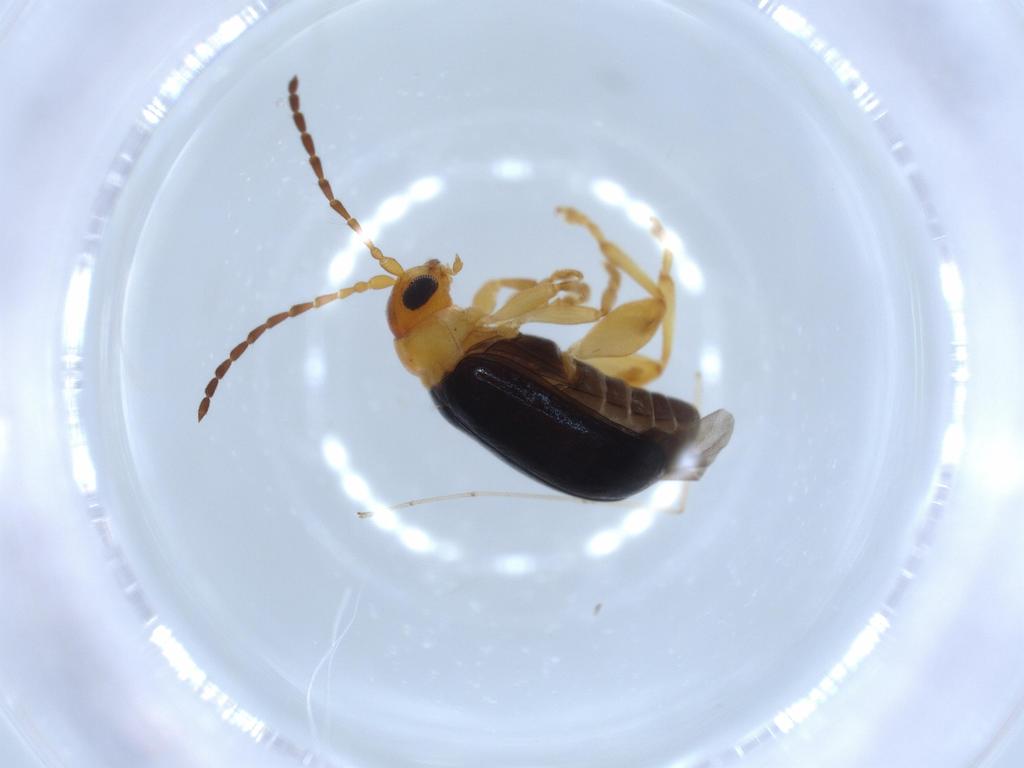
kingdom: Animalia
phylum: Arthropoda
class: Insecta
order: Coleoptera
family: Chrysomelidae
